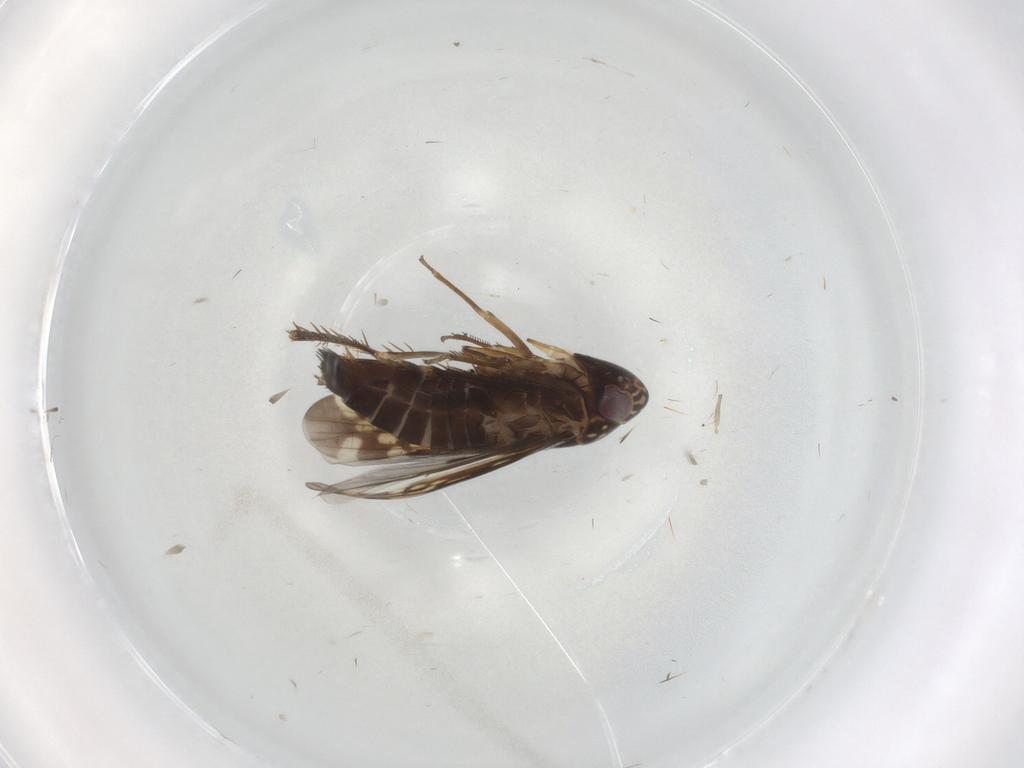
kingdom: Animalia
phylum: Arthropoda
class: Insecta
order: Hemiptera
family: Cicadellidae
